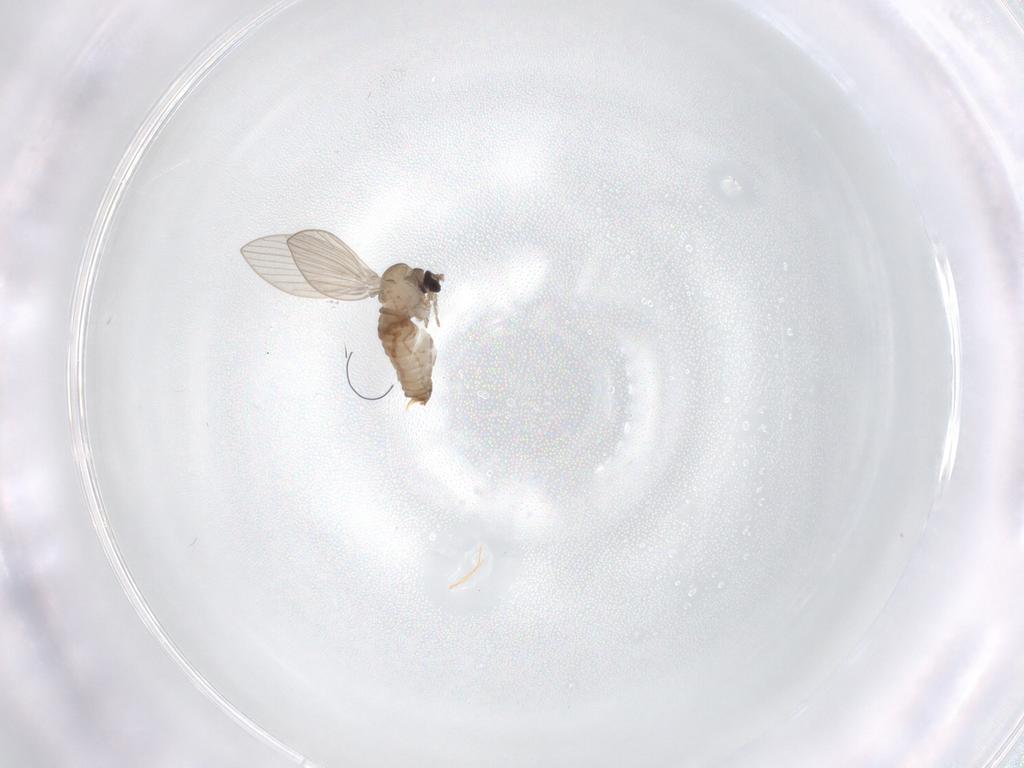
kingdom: Animalia
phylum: Arthropoda
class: Insecta
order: Diptera
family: Psychodidae
